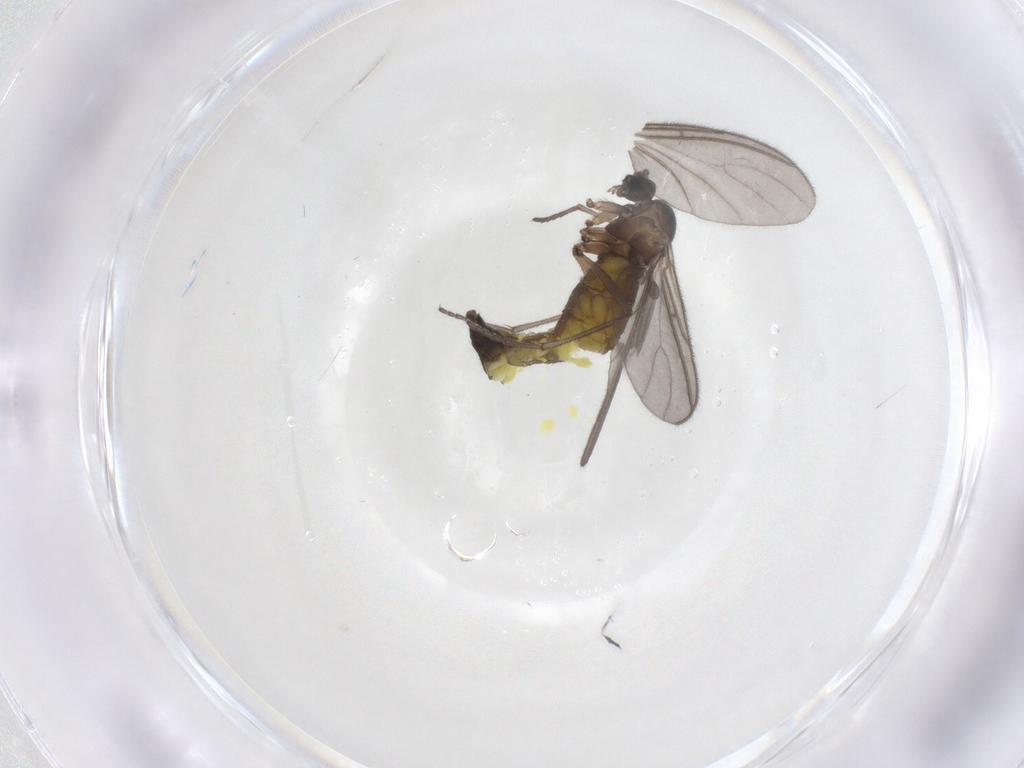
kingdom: Animalia
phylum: Arthropoda
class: Insecta
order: Diptera
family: Sciaridae
